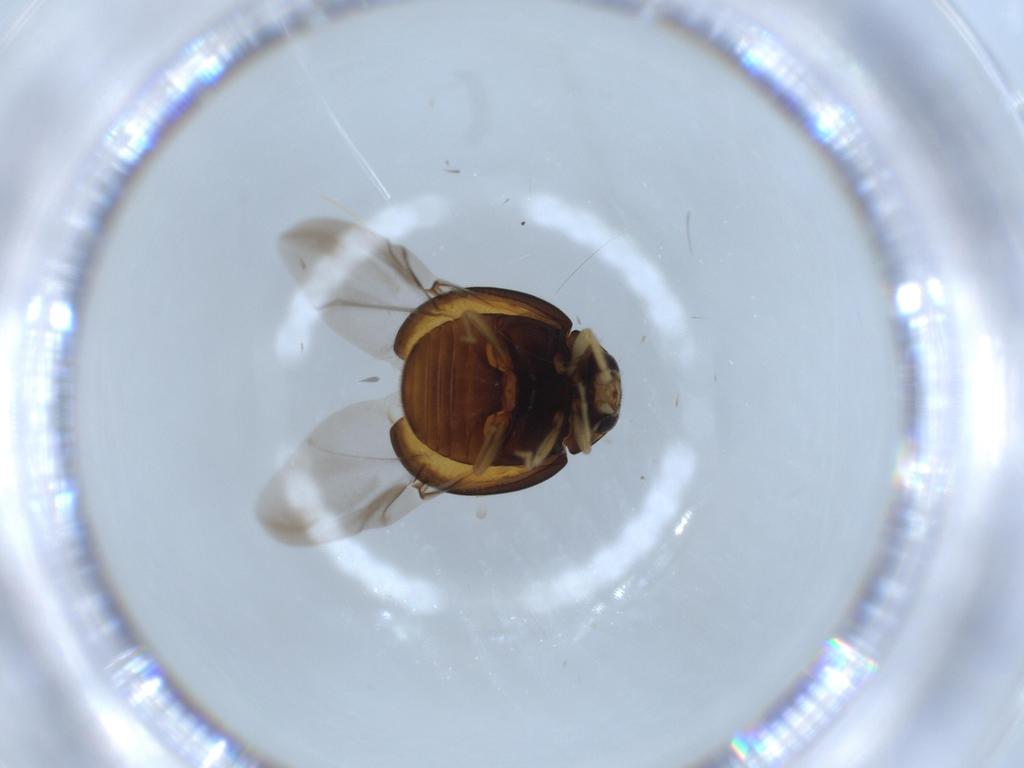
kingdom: Animalia
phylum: Arthropoda
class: Insecta
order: Coleoptera
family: Coccinellidae
